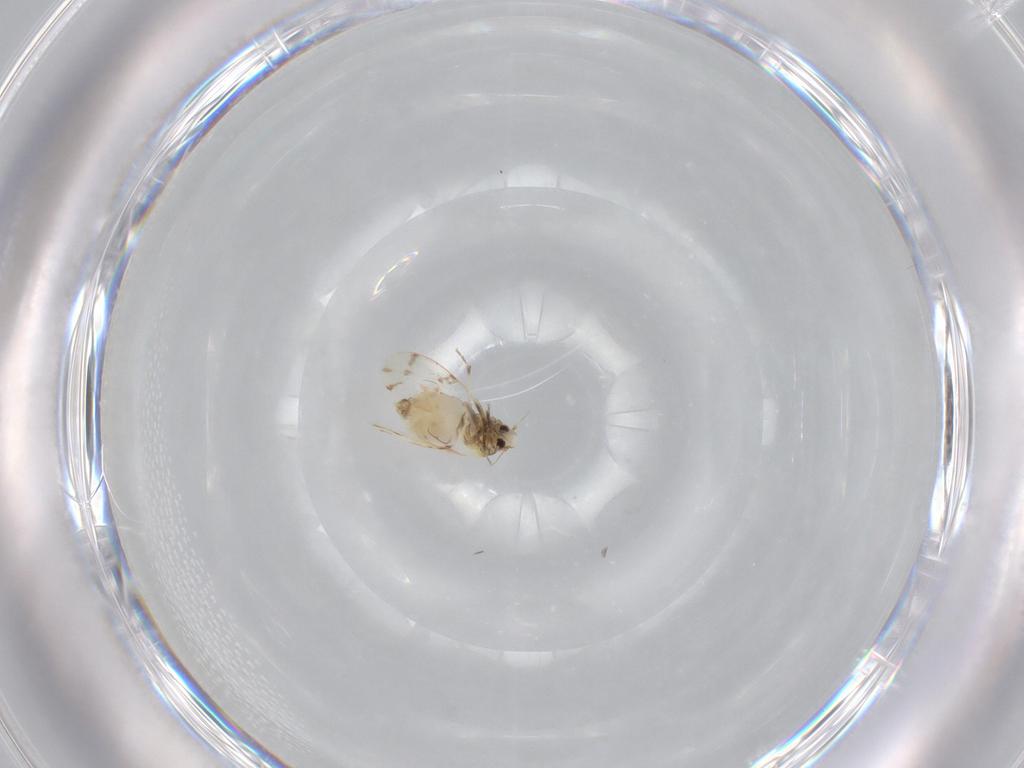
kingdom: Animalia
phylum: Arthropoda
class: Insecta
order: Hemiptera
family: Aleyrodidae
